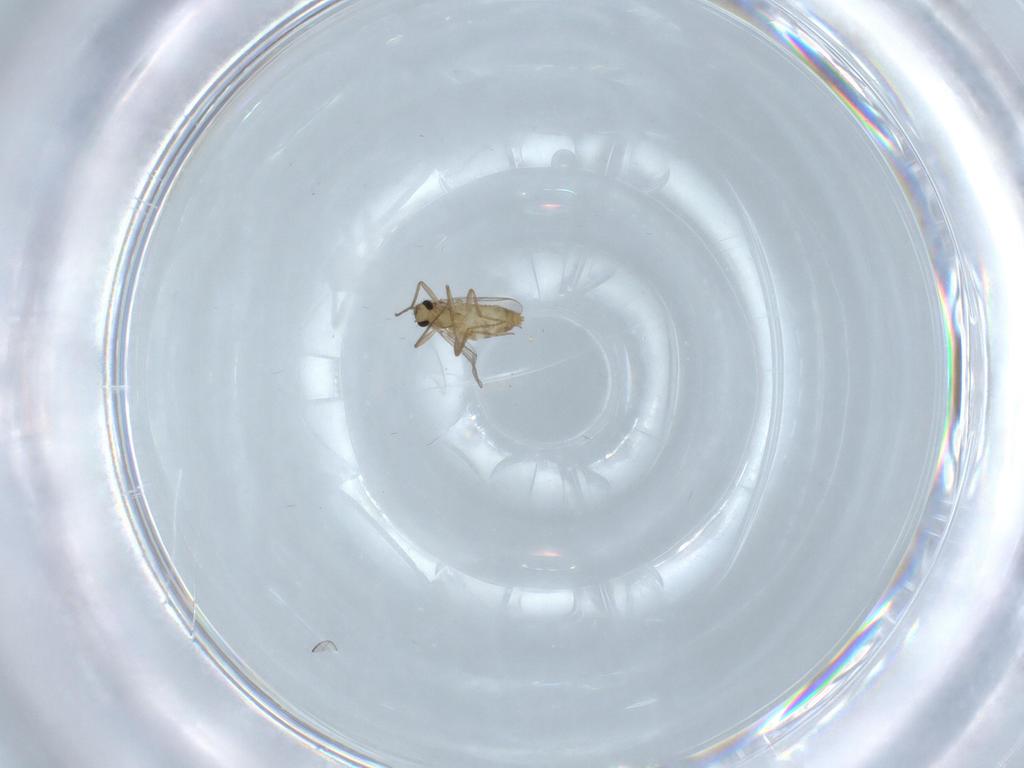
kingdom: Animalia
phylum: Arthropoda
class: Insecta
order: Diptera
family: Chironomidae
